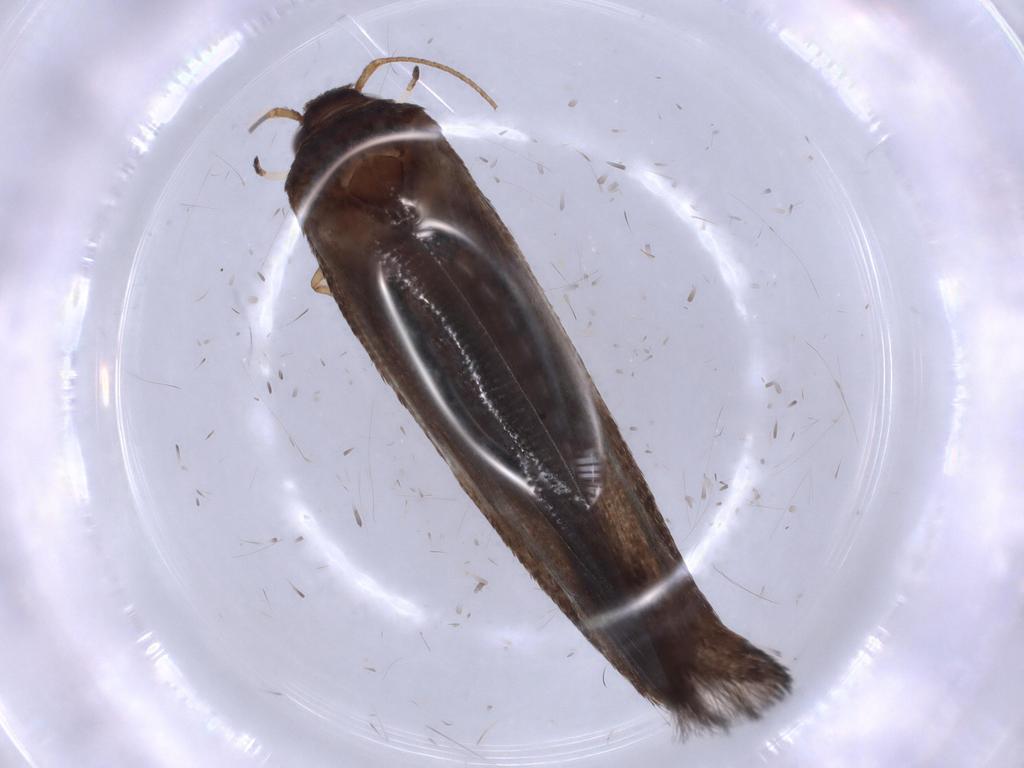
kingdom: Animalia
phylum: Arthropoda
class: Insecta
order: Lepidoptera
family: Blastobasidae
